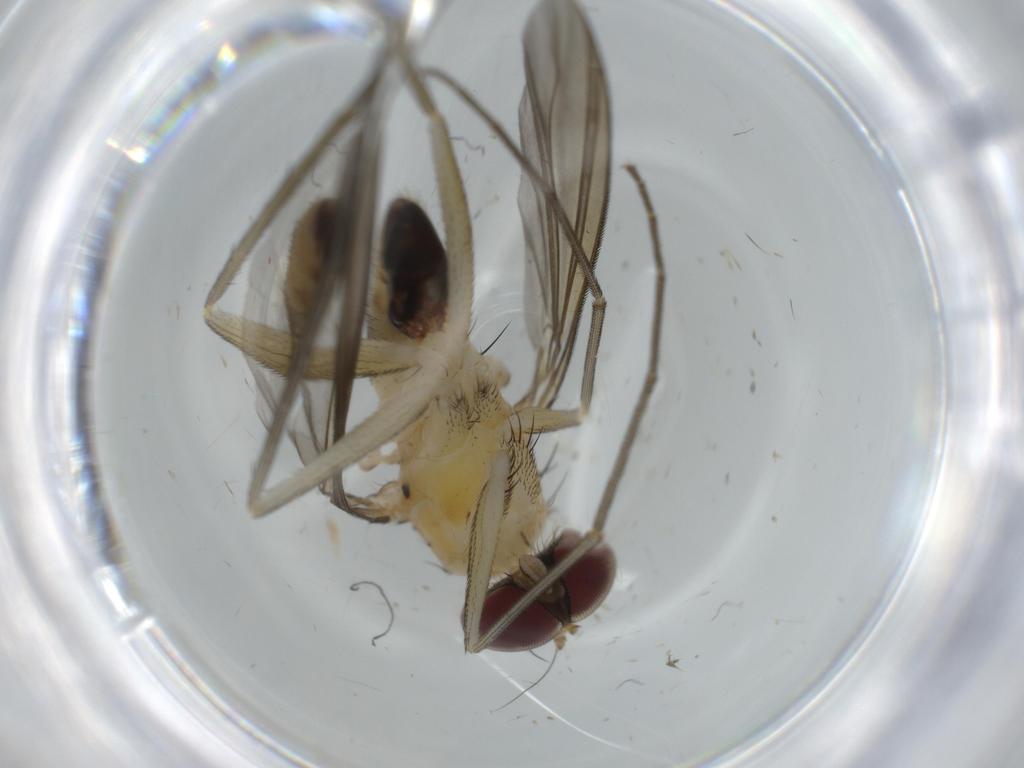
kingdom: Animalia
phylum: Arthropoda
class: Insecta
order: Diptera
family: Dolichopodidae
